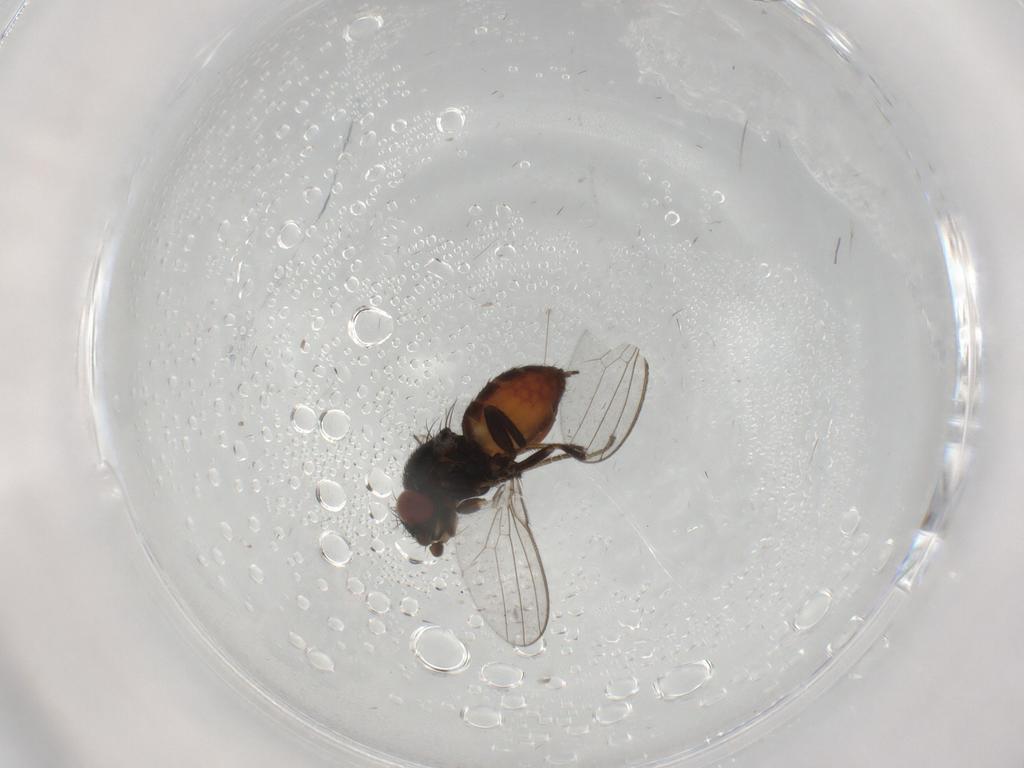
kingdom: Animalia
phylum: Arthropoda
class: Insecta
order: Diptera
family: Milichiidae
